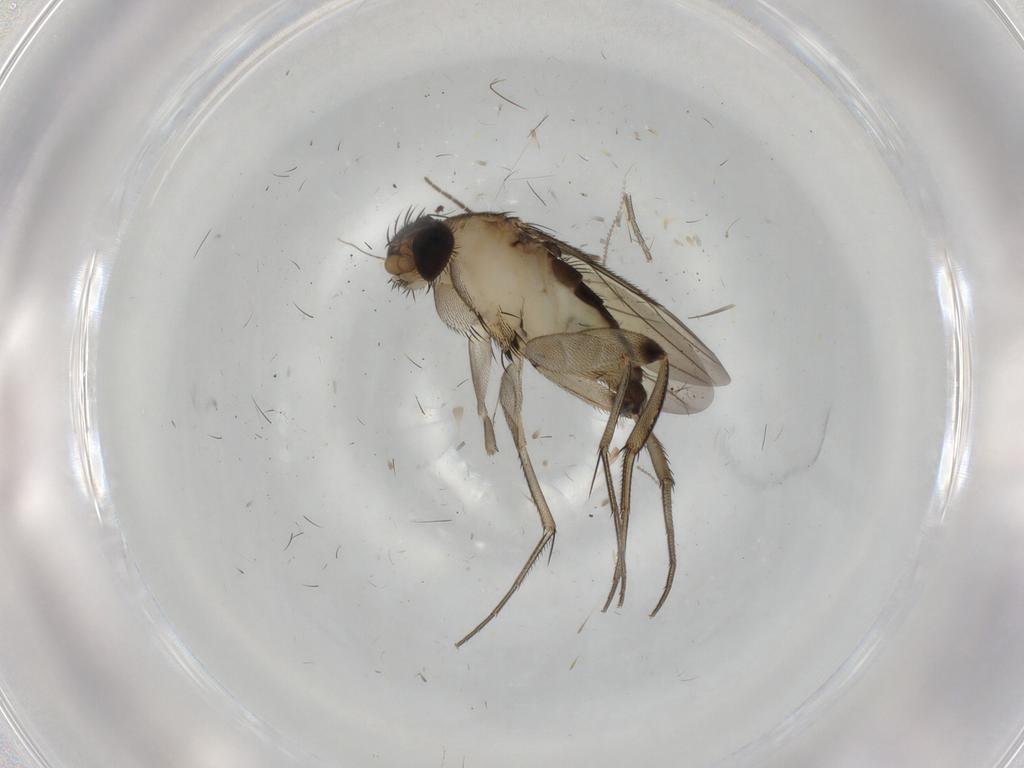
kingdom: Animalia
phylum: Arthropoda
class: Insecta
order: Diptera
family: Phoridae
